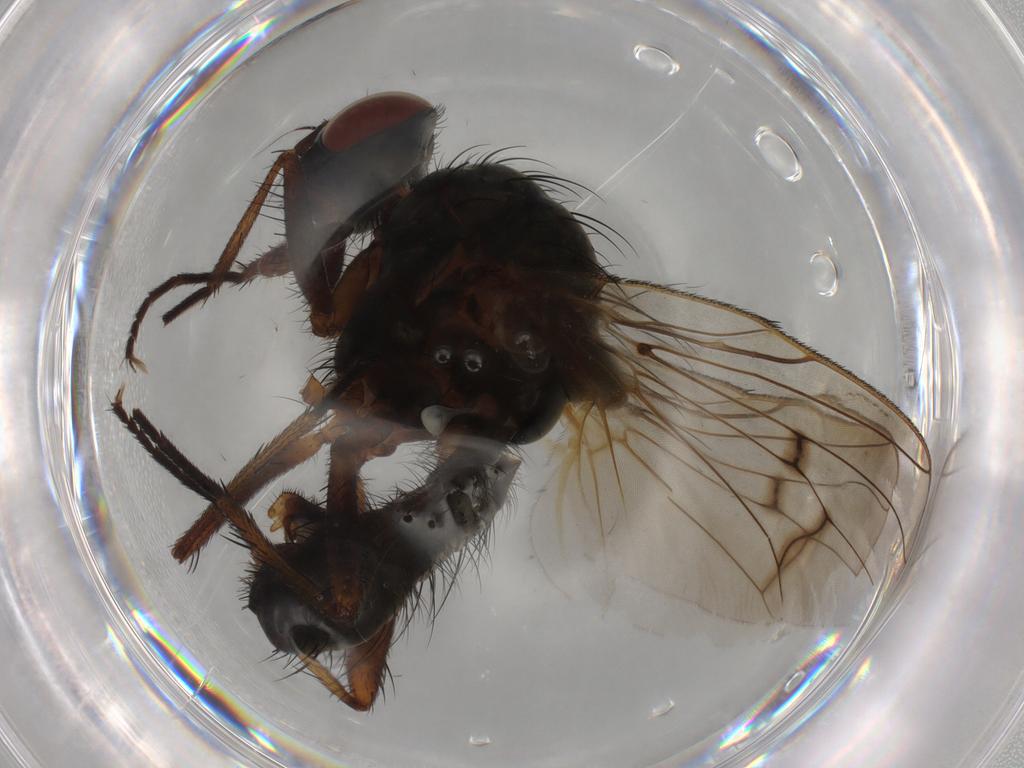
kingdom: Animalia
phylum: Arthropoda
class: Insecta
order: Diptera
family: Anthomyiidae
